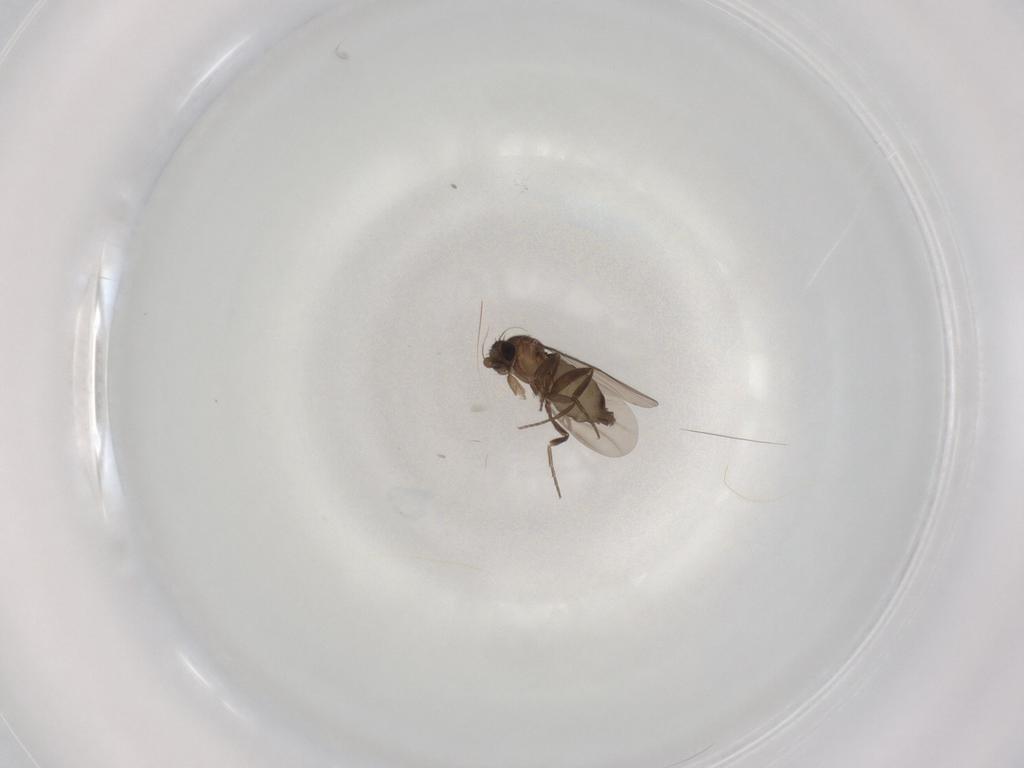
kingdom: Animalia
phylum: Arthropoda
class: Insecta
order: Diptera
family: Phoridae
